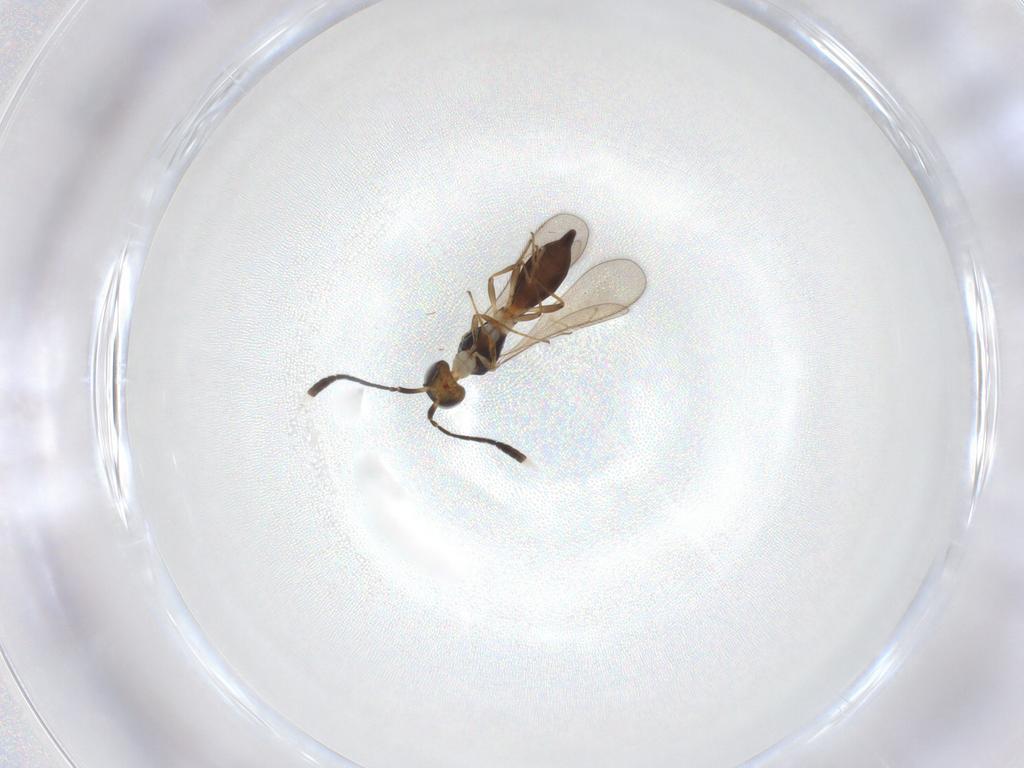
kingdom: Animalia
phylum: Arthropoda
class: Insecta
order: Hymenoptera
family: Scelionidae
